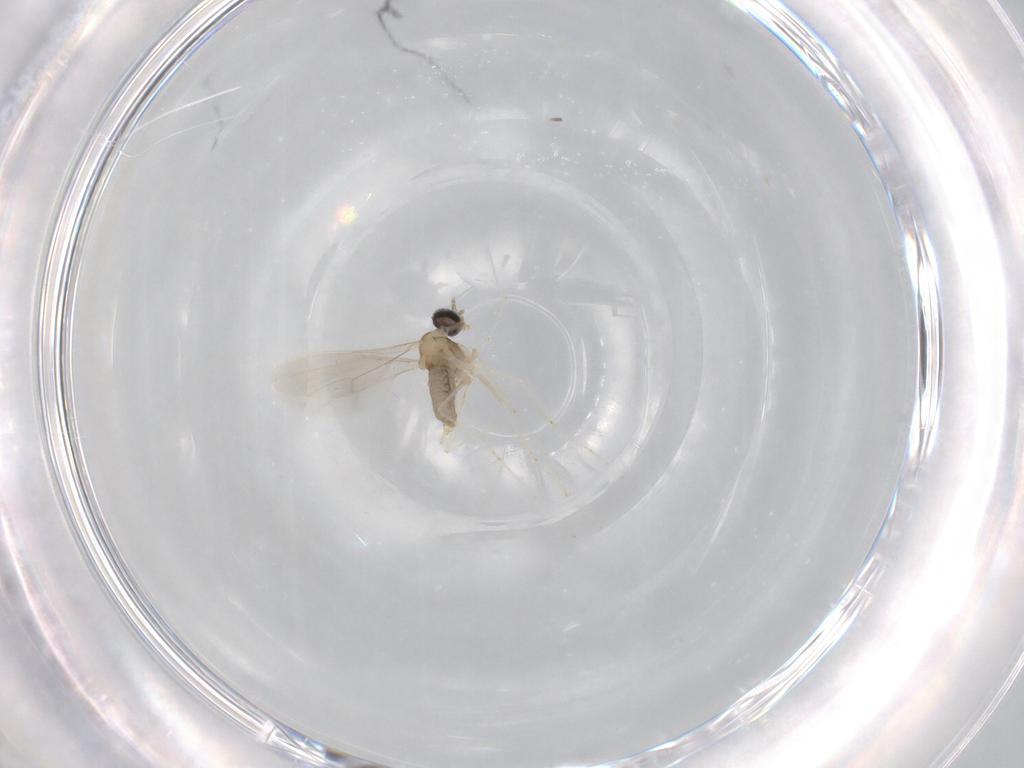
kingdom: Animalia
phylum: Arthropoda
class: Insecta
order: Diptera
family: Cecidomyiidae
